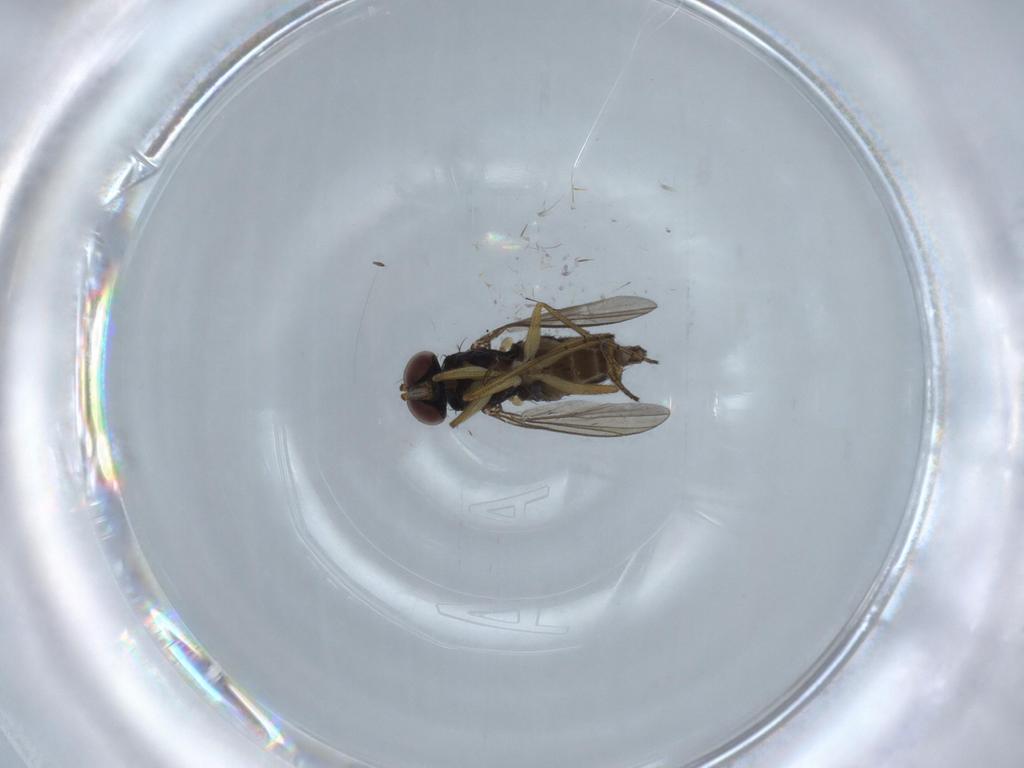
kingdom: Animalia
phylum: Arthropoda
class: Insecta
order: Diptera
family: Dolichopodidae
